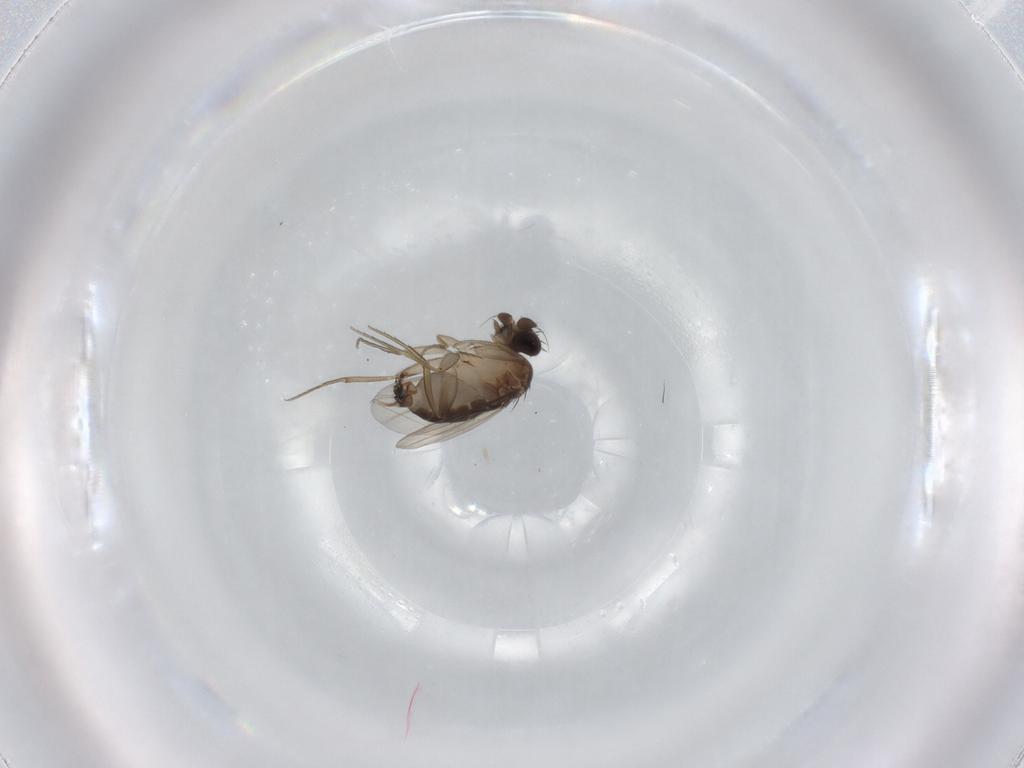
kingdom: Animalia
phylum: Arthropoda
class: Insecta
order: Diptera
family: Phoridae
